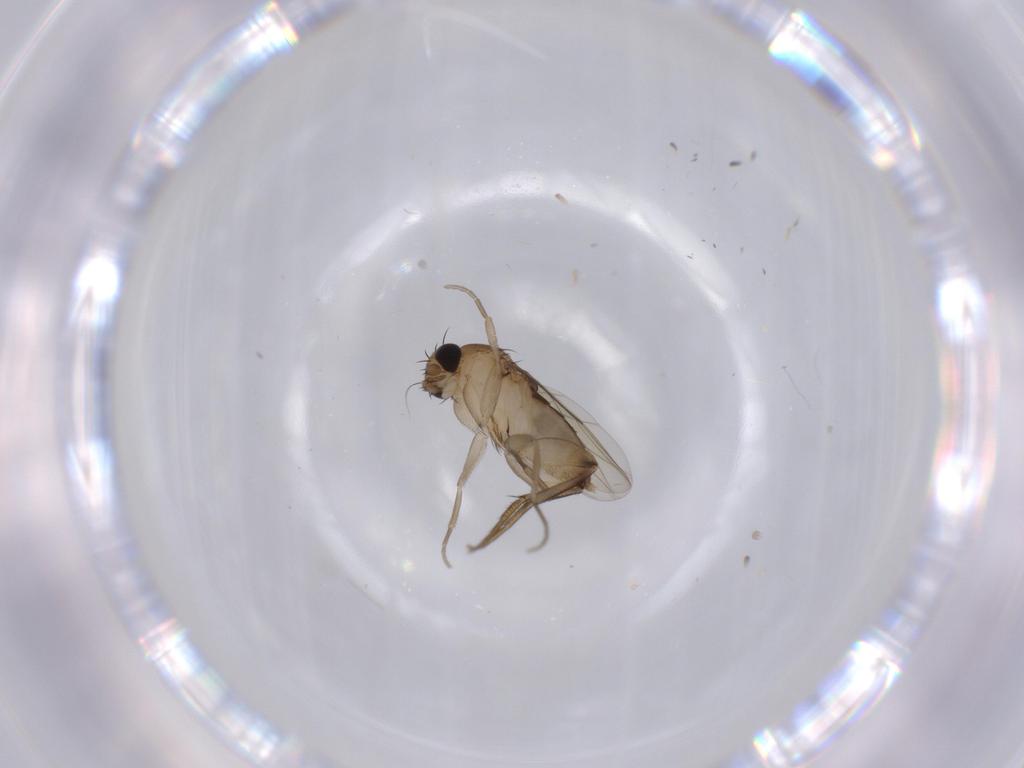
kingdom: Animalia
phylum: Arthropoda
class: Insecta
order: Diptera
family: Phoridae
